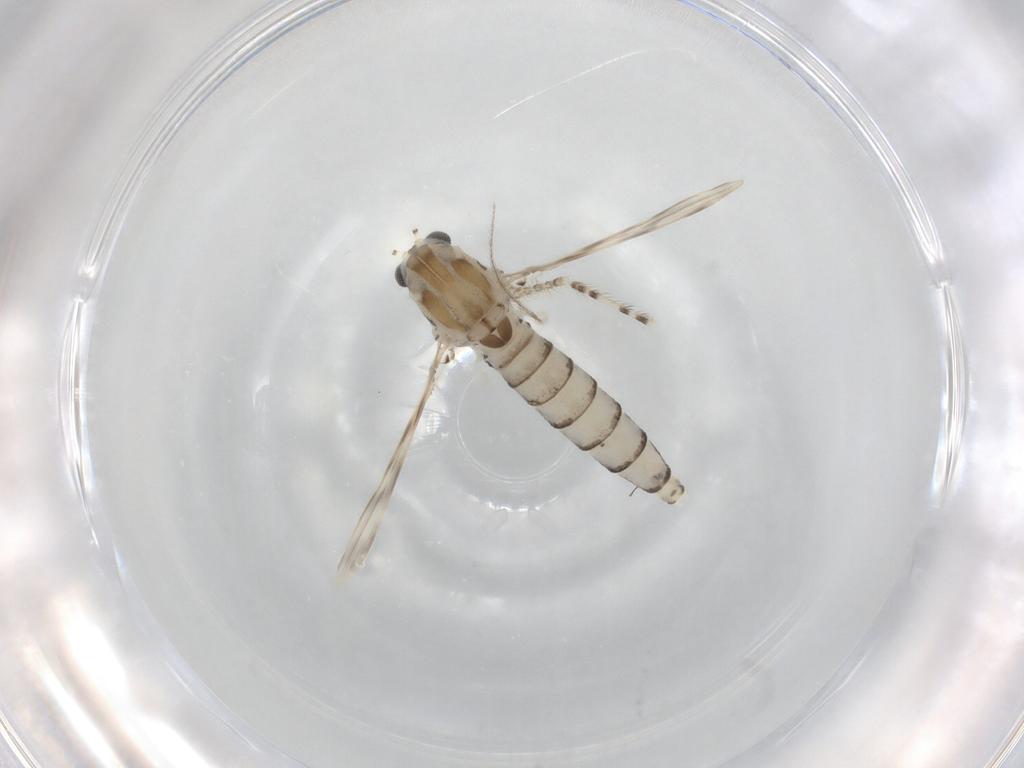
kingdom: Animalia
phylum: Arthropoda
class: Insecta
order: Diptera
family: Chaoboridae
